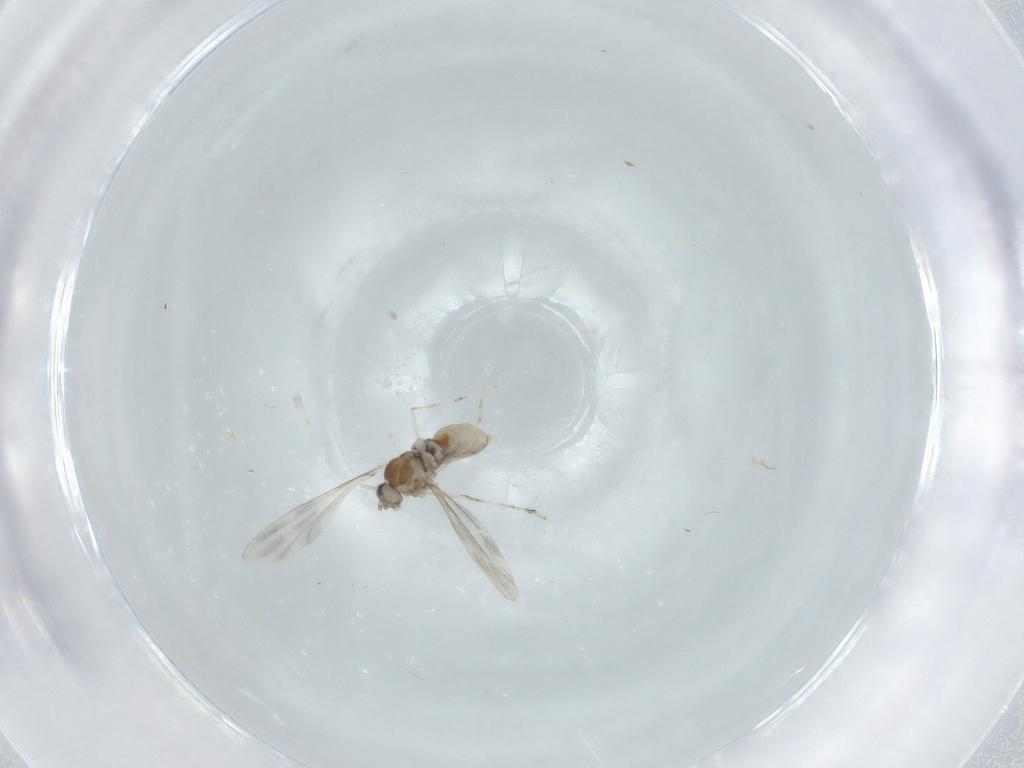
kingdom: Animalia
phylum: Arthropoda
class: Insecta
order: Diptera
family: Cecidomyiidae
